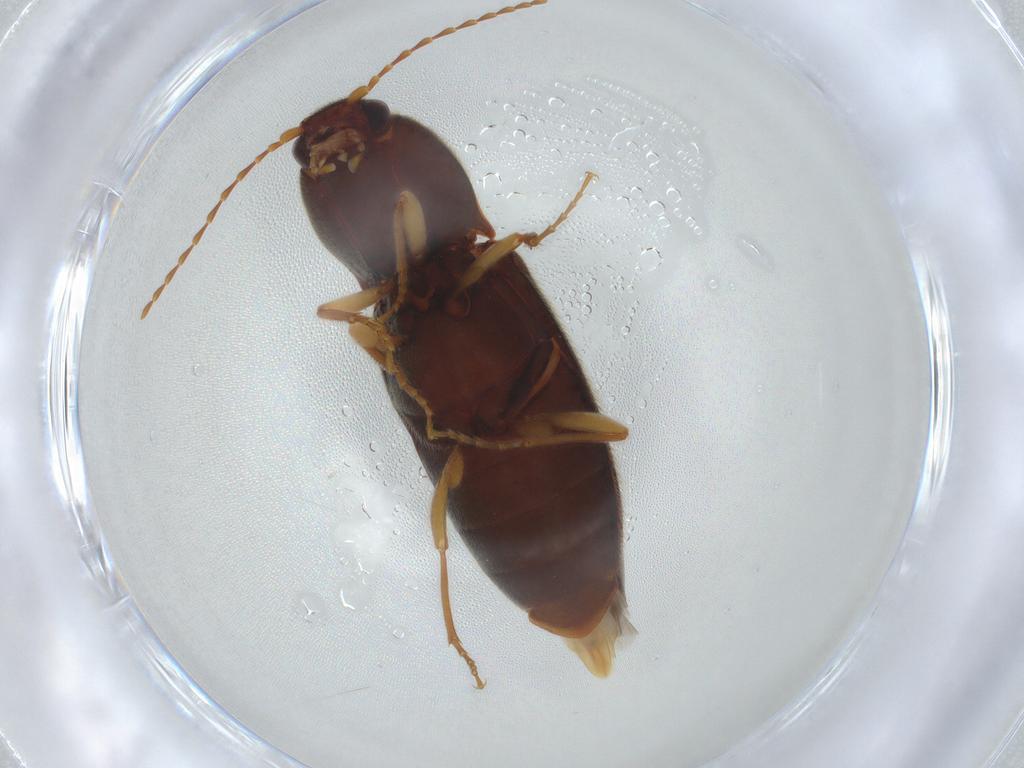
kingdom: Animalia
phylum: Arthropoda
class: Insecta
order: Coleoptera
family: Elateridae
